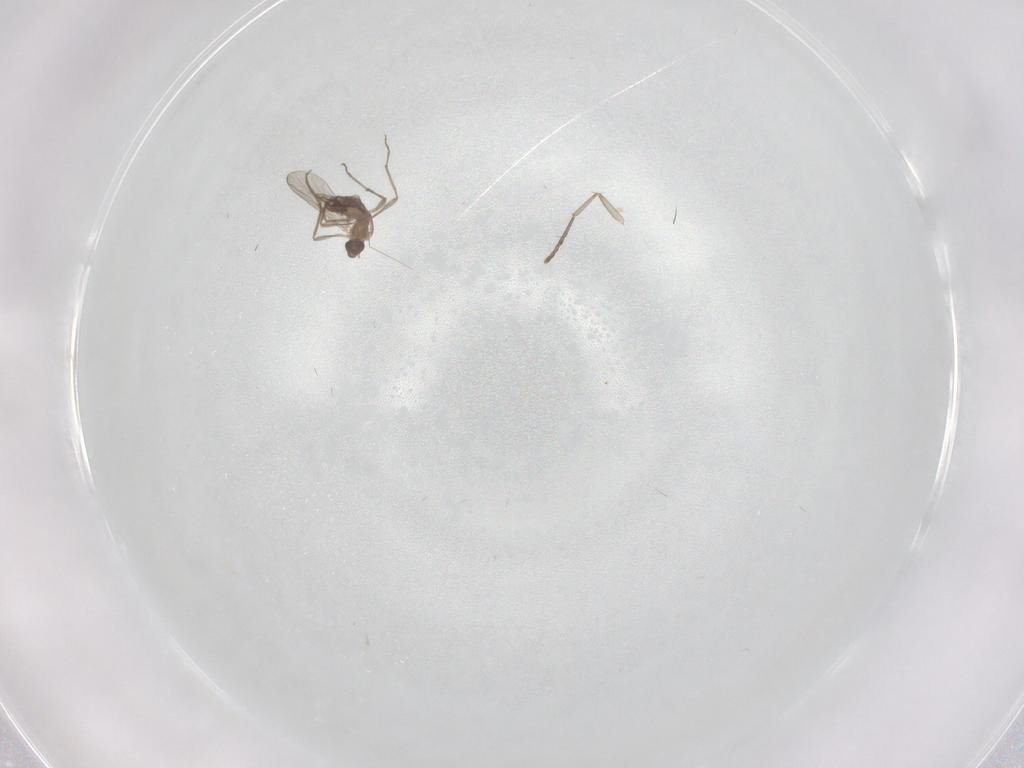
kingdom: Animalia
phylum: Arthropoda
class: Insecta
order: Diptera
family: Chironomidae
